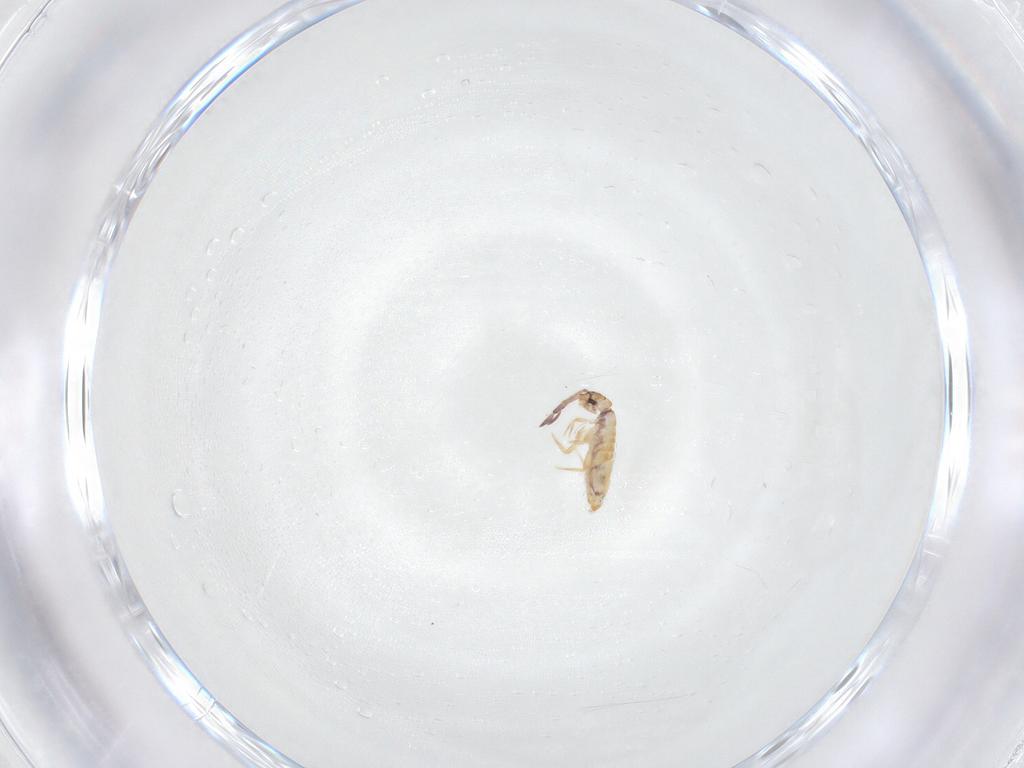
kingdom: Animalia
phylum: Arthropoda
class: Collembola
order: Entomobryomorpha
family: Entomobryidae
